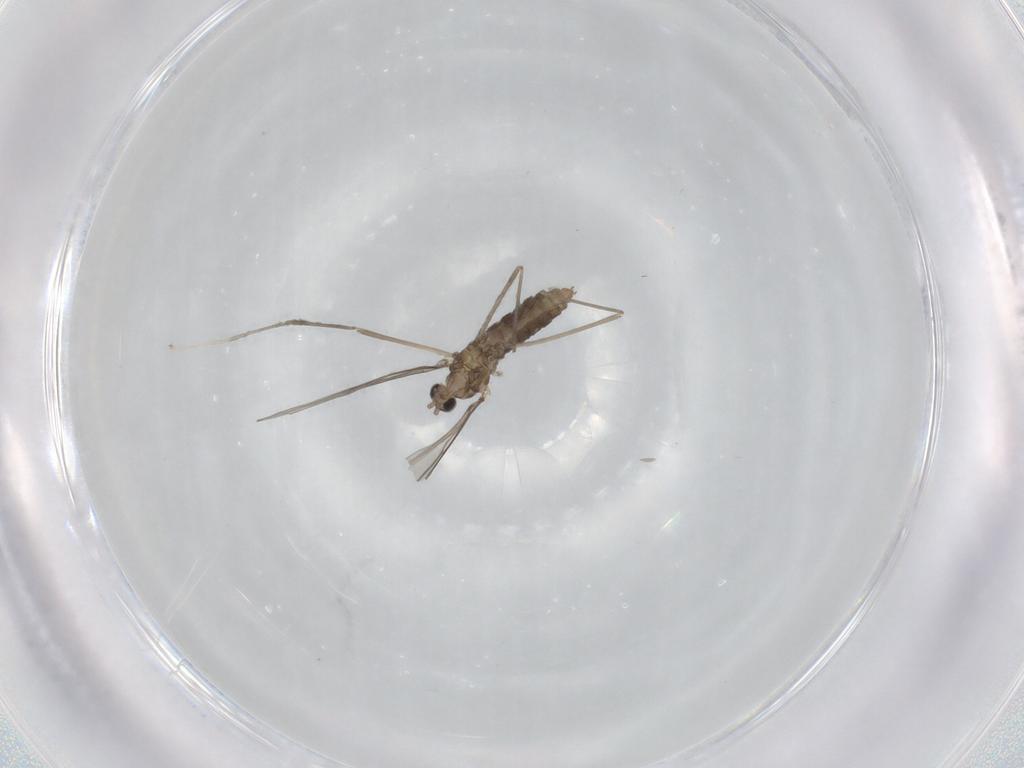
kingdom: Animalia
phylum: Arthropoda
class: Insecta
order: Diptera
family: Cecidomyiidae
